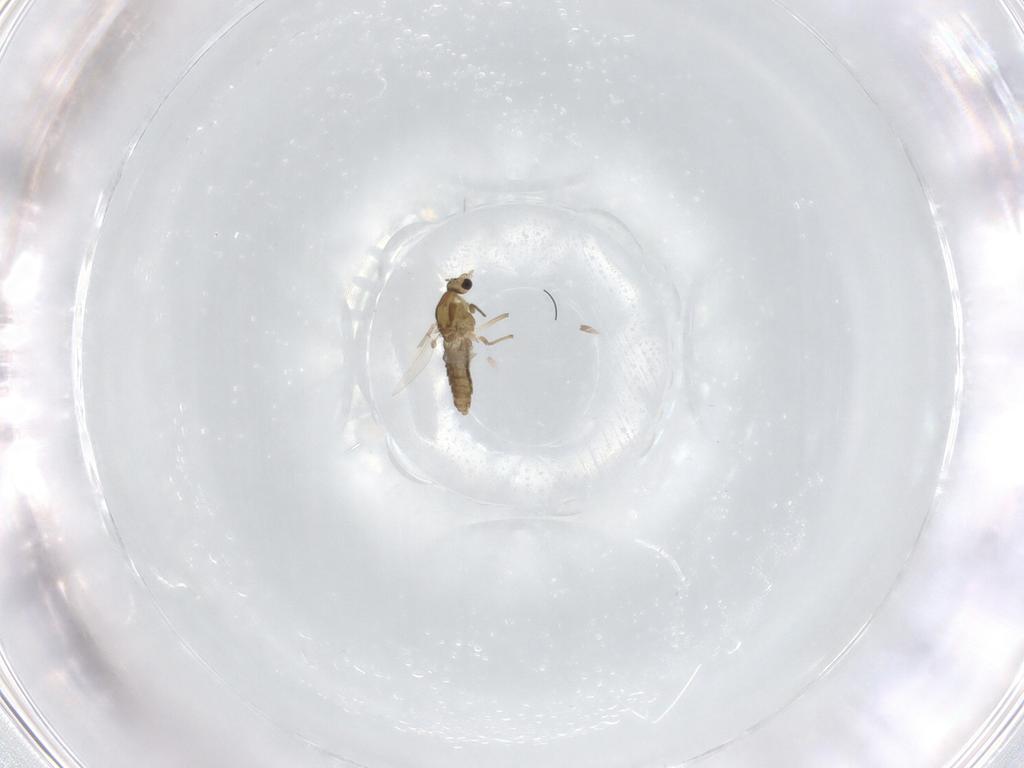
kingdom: Animalia
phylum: Arthropoda
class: Insecta
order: Diptera
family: Chironomidae
